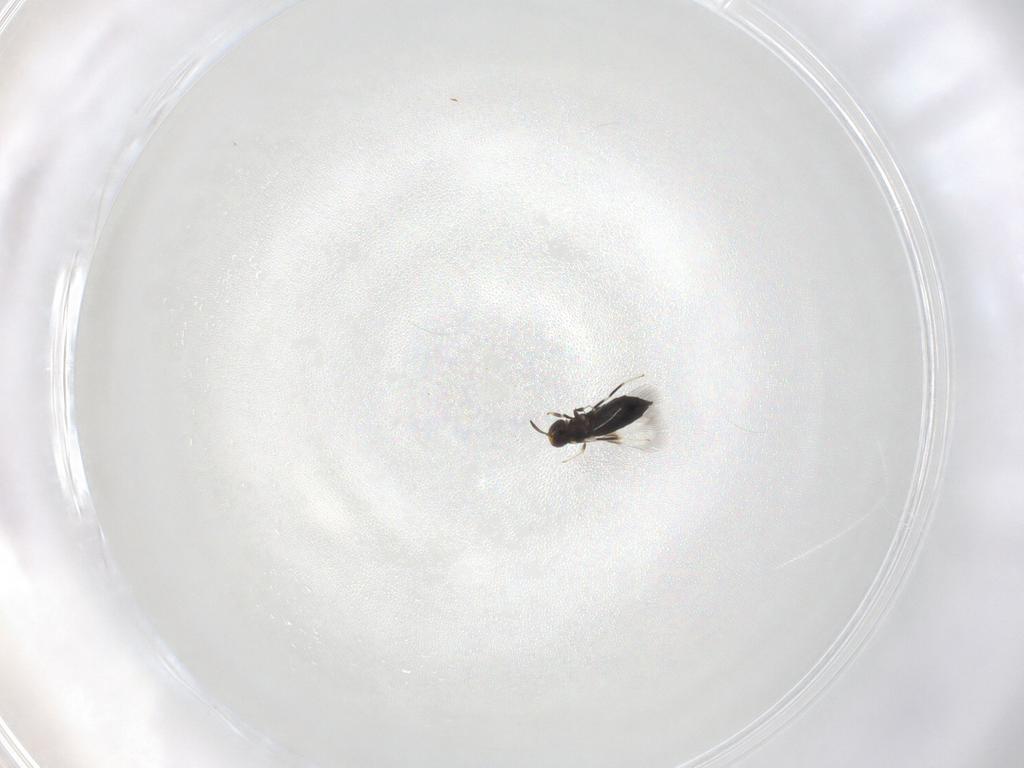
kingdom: Animalia
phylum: Arthropoda
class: Insecta
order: Hymenoptera
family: Signiphoridae
